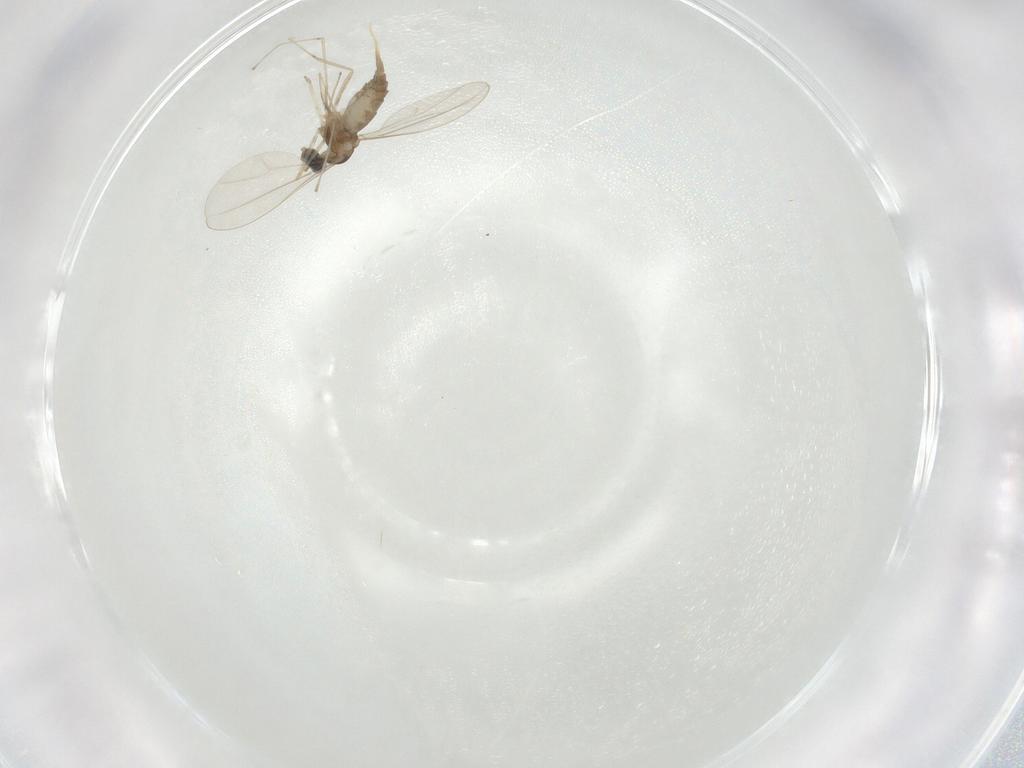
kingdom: Animalia
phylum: Arthropoda
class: Insecta
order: Diptera
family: Cecidomyiidae
